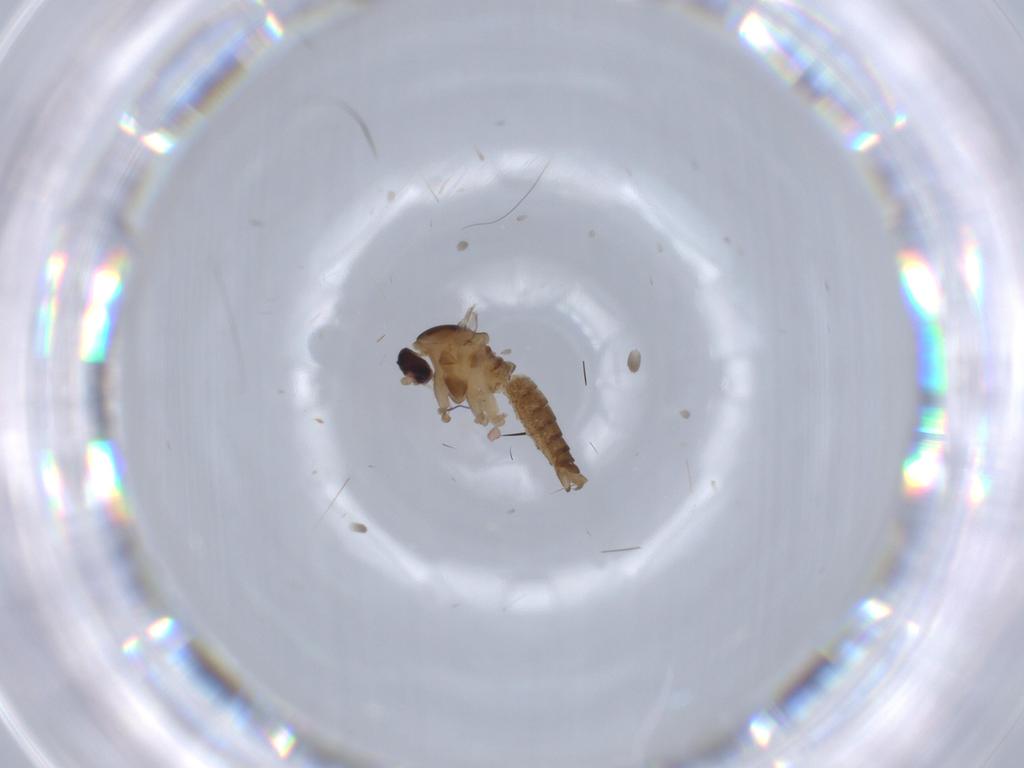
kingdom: Animalia
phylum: Arthropoda
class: Insecta
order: Diptera
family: Cecidomyiidae
